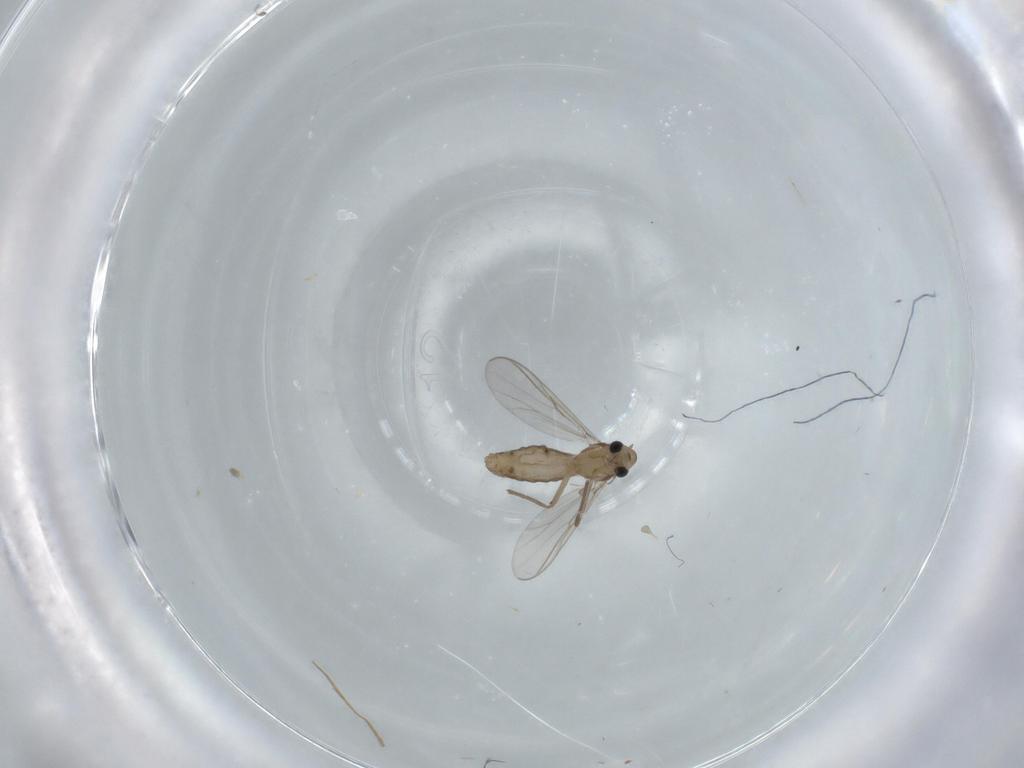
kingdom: Animalia
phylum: Arthropoda
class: Insecta
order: Diptera
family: Chironomidae
